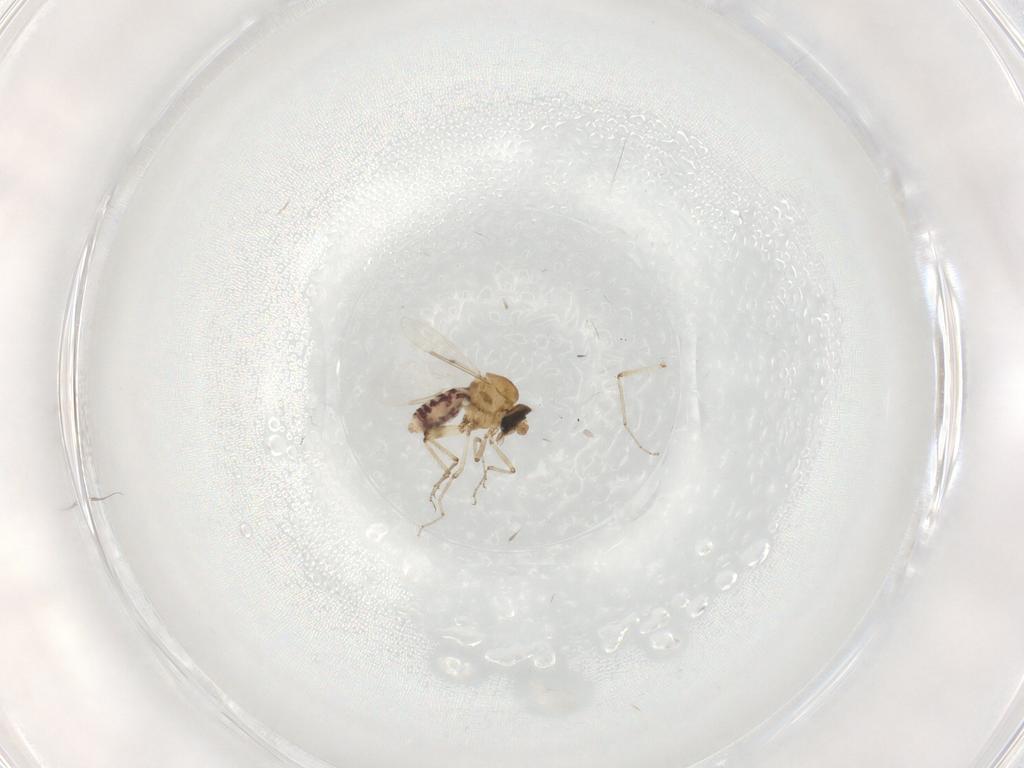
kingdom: Animalia
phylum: Arthropoda
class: Insecta
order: Diptera
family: Ceratopogonidae
